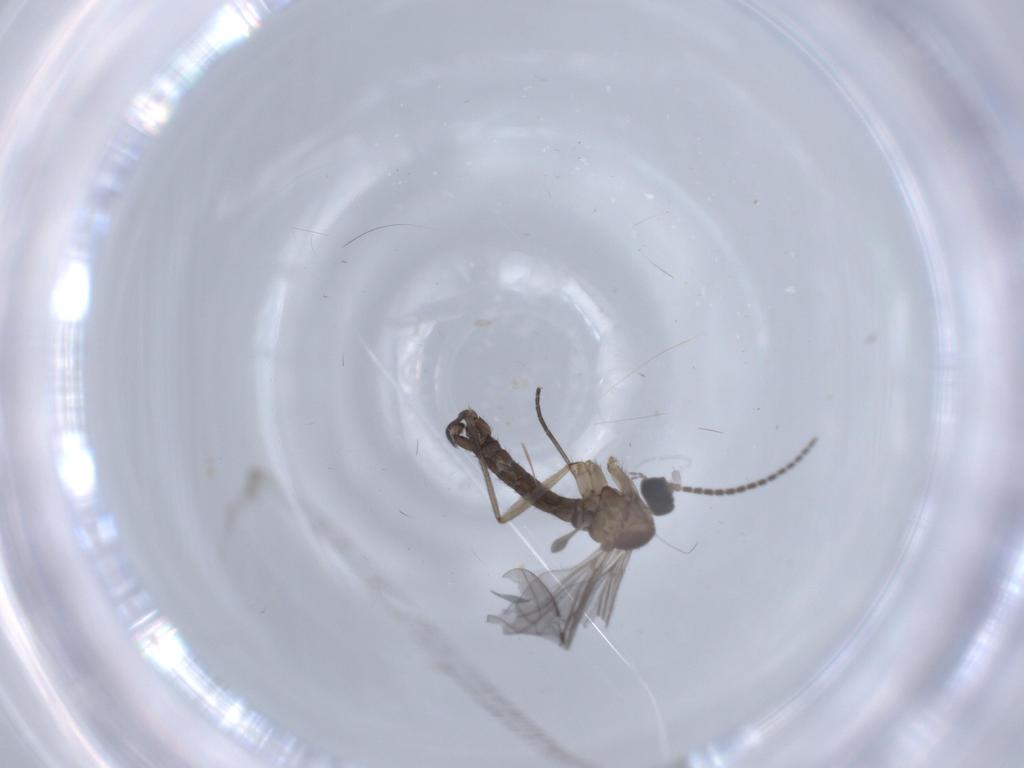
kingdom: Animalia
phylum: Arthropoda
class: Insecta
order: Diptera
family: Sciaridae
